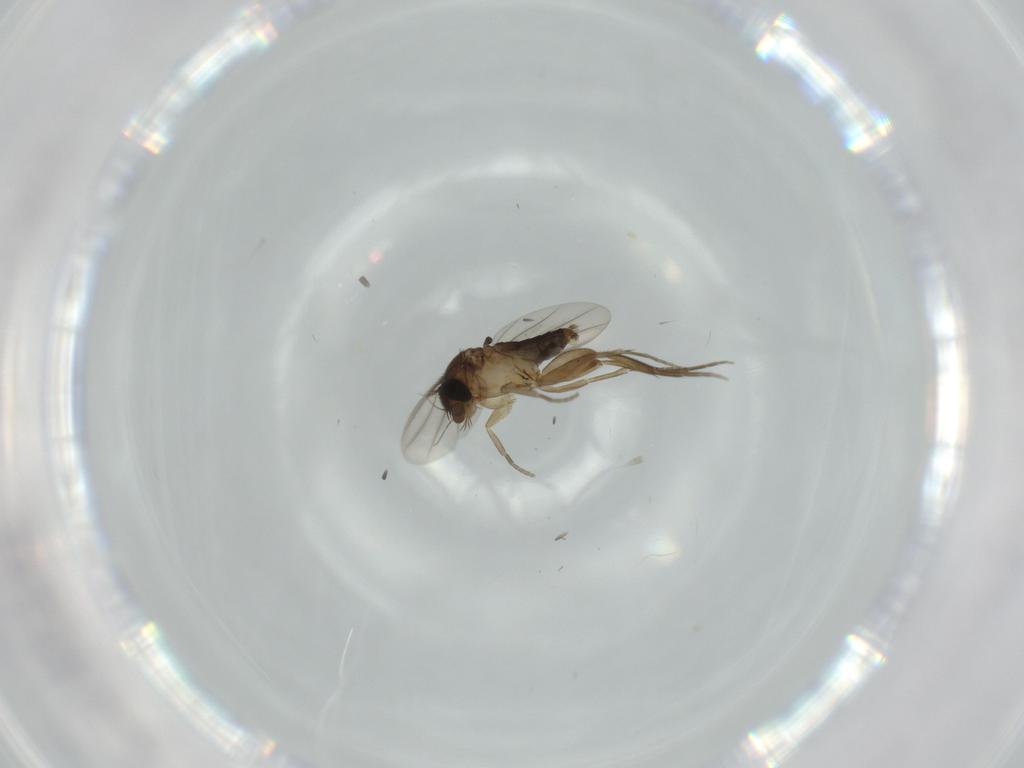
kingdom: Animalia
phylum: Arthropoda
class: Insecta
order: Diptera
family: Phoridae
